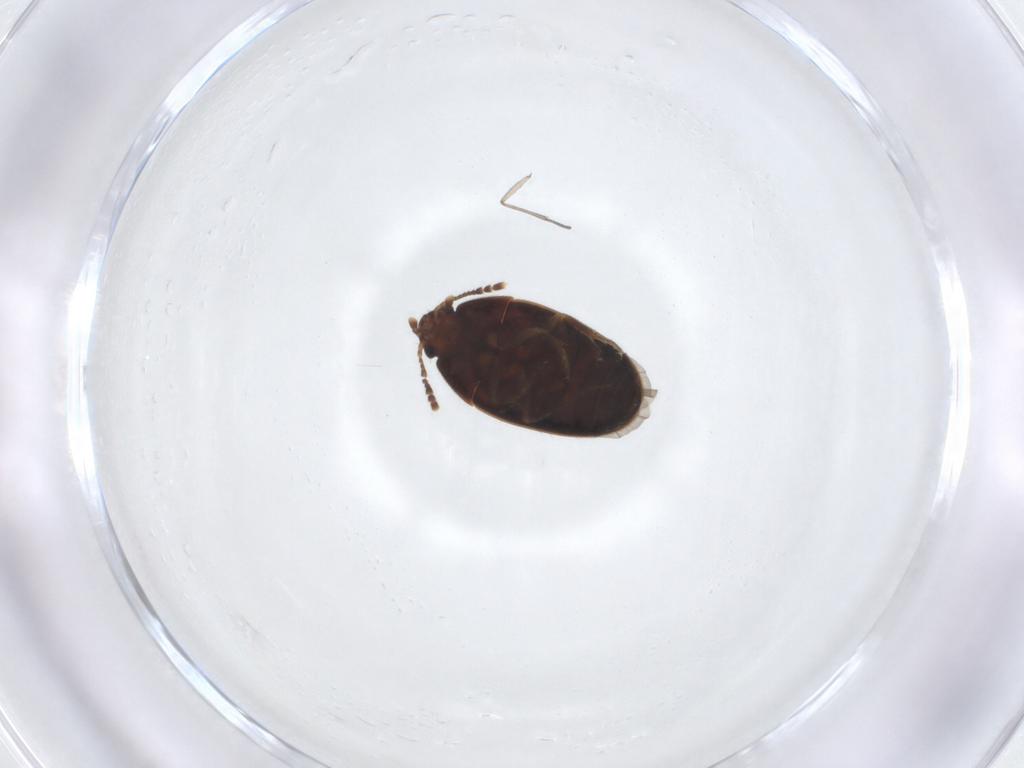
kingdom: Animalia
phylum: Arthropoda
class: Insecta
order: Coleoptera
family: Mycetophagidae
